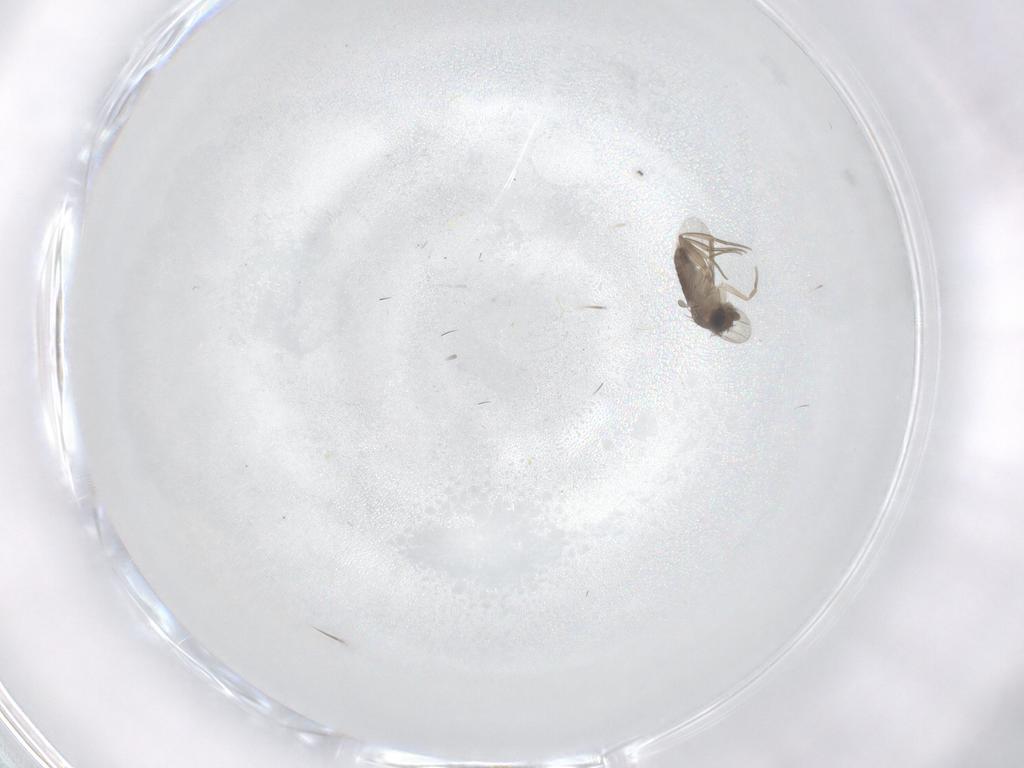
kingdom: Animalia
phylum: Arthropoda
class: Insecta
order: Diptera
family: Phoridae
